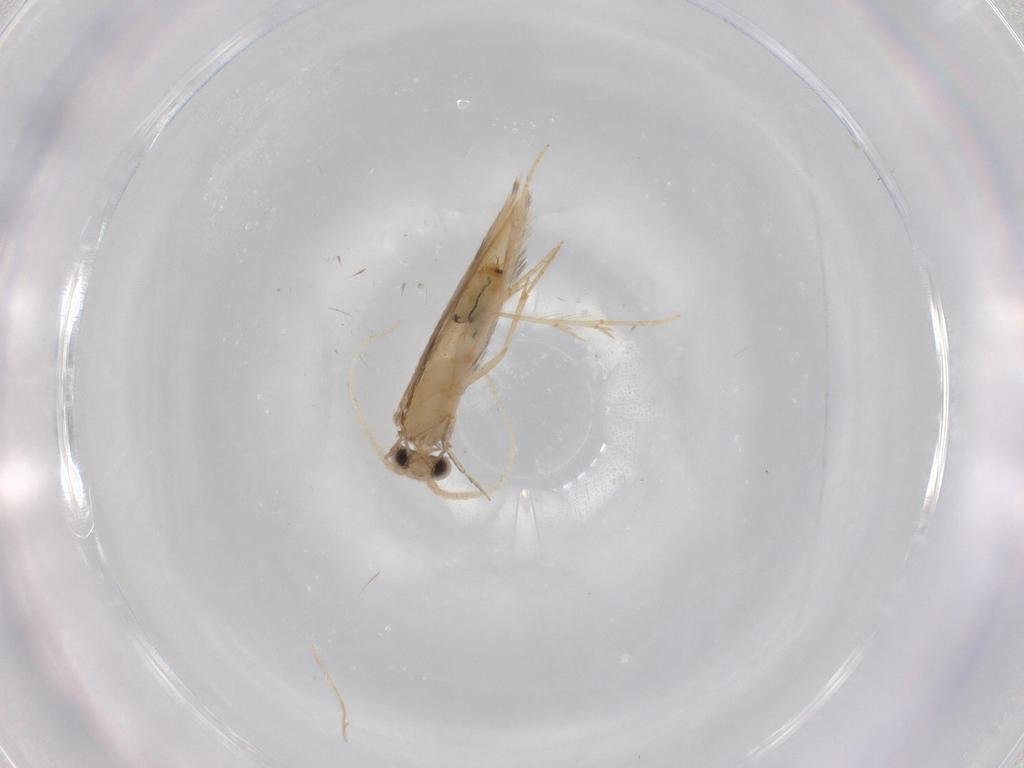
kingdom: Animalia
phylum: Arthropoda
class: Insecta
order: Trichoptera
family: Hydroptilidae
